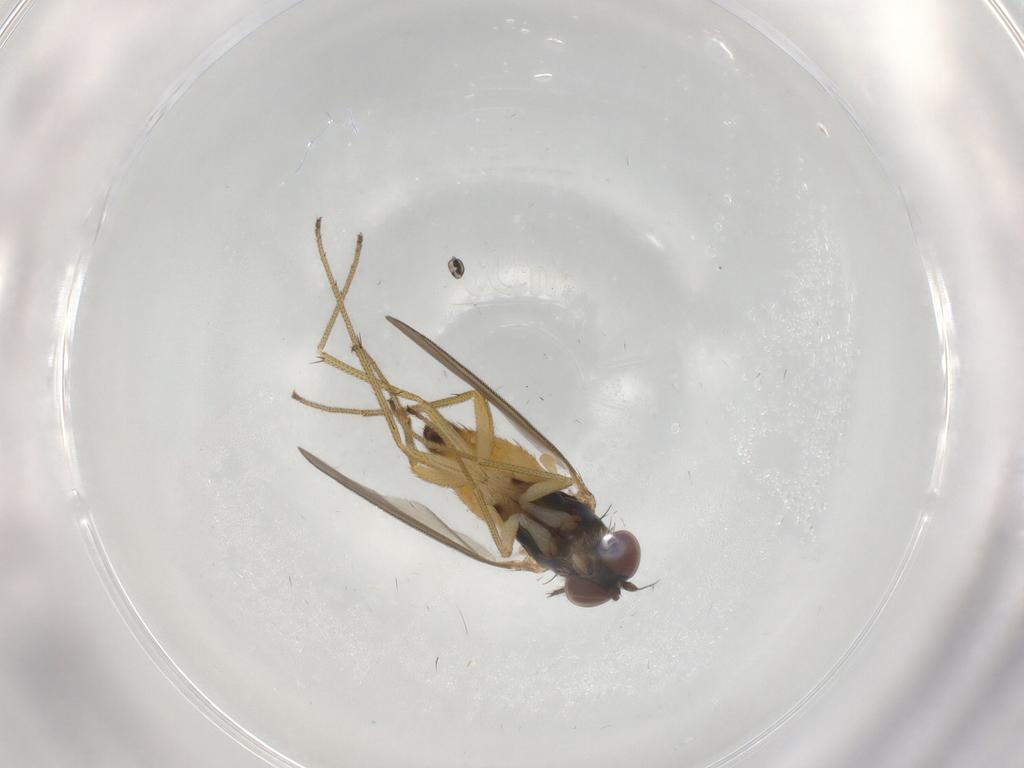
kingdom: Animalia
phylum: Arthropoda
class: Insecta
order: Diptera
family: Dolichopodidae
